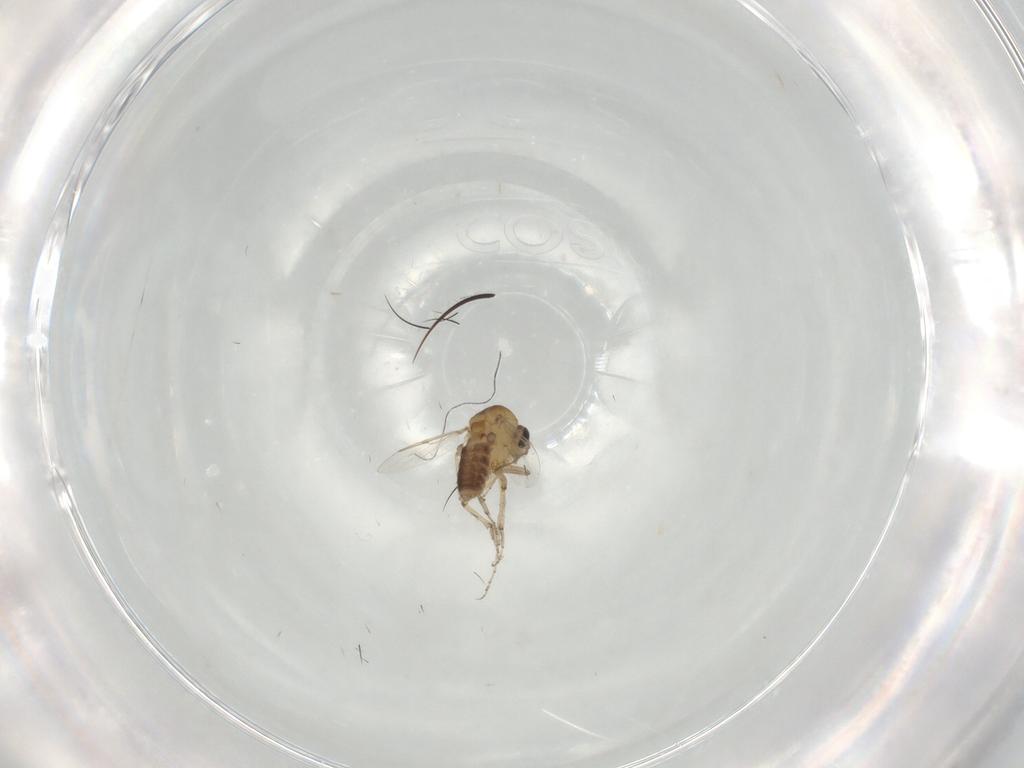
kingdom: Animalia
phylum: Arthropoda
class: Insecta
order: Diptera
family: Ceratopogonidae
